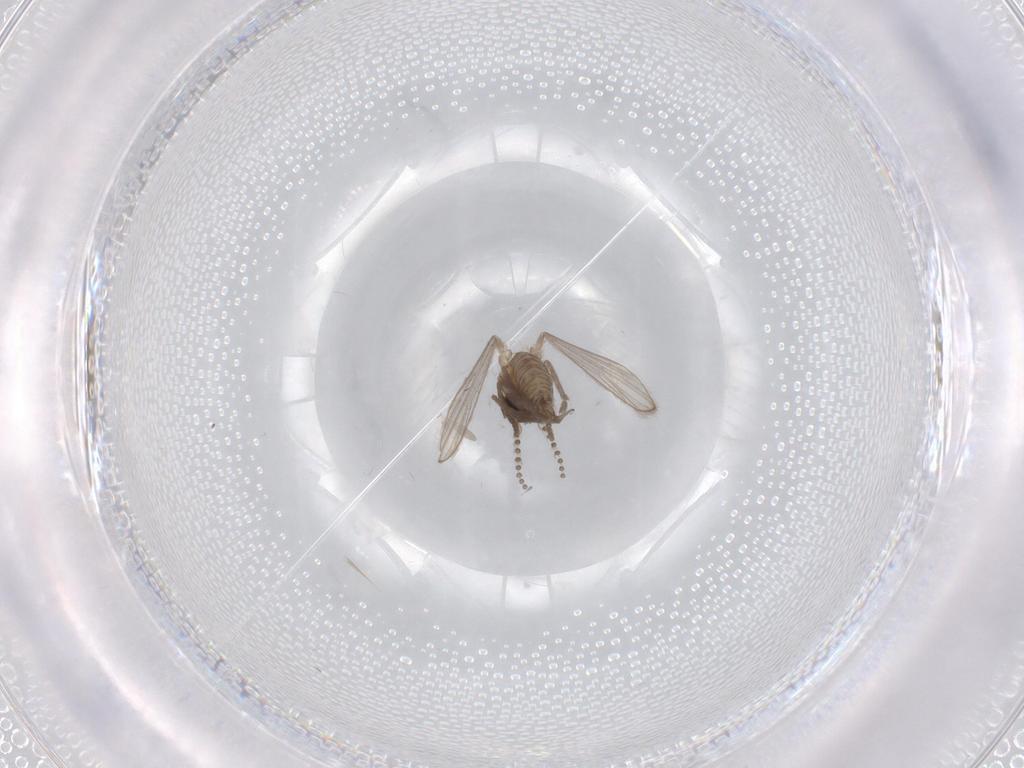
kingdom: Animalia
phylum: Arthropoda
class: Insecta
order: Diptera
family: Psychodidae
